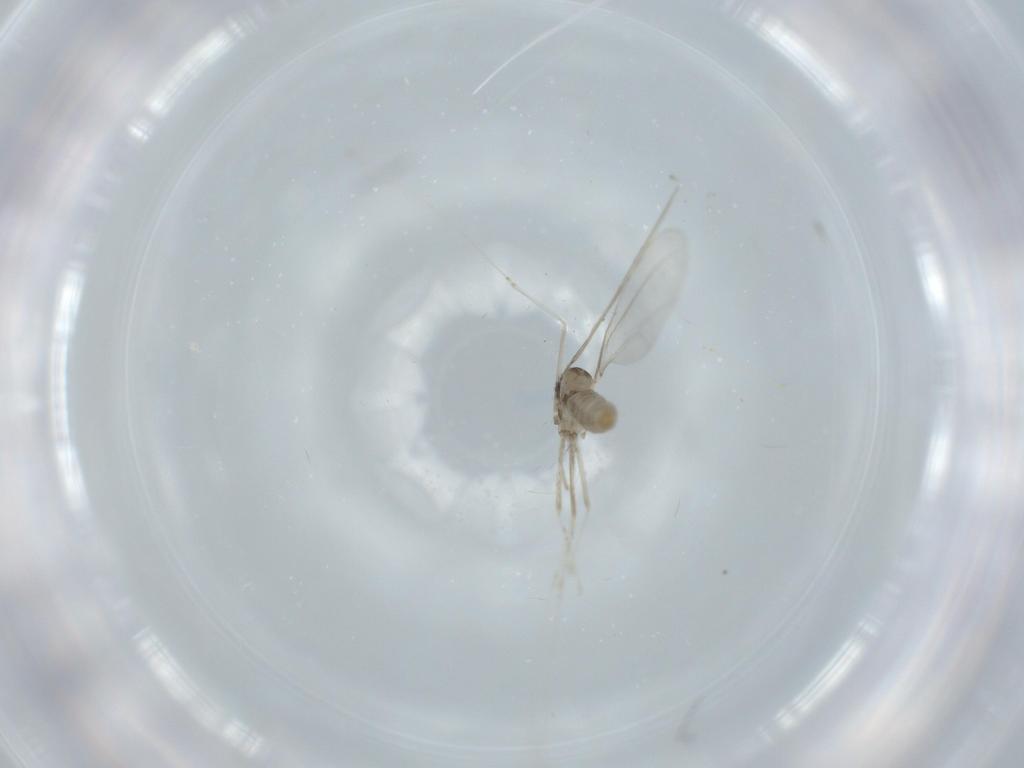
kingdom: Animalia
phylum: Arthropoda
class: Insecta
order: Diptera
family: Cecidomyiidae
